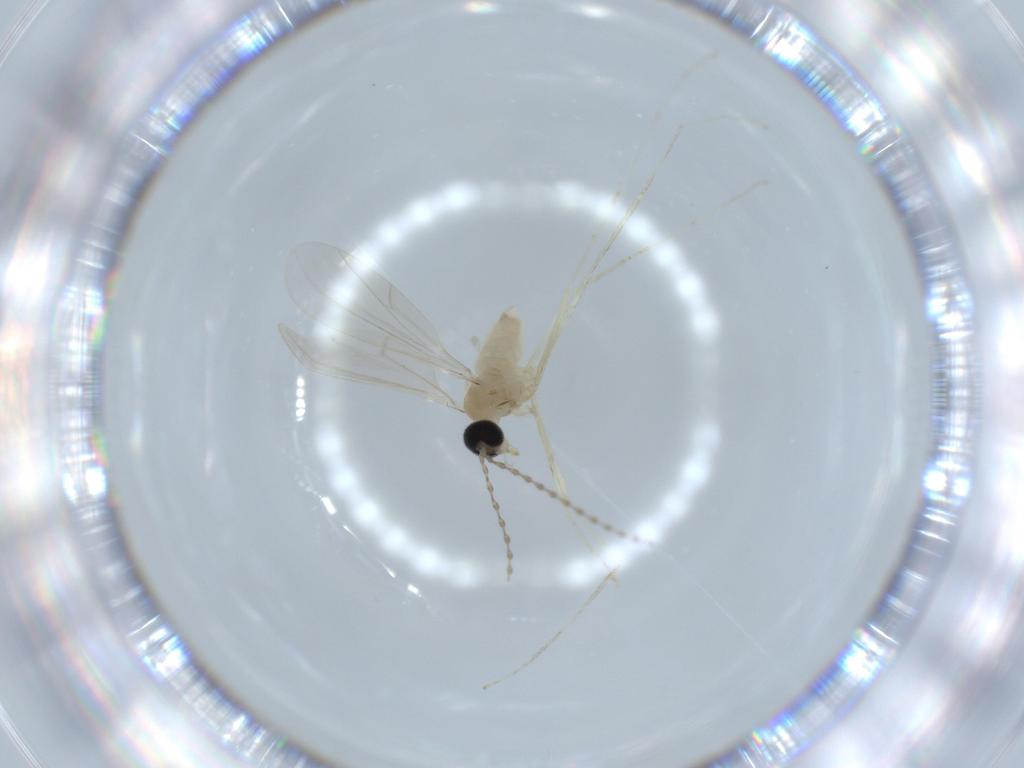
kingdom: Animalia
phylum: Arthropoda
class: Insecta
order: Diptera
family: Cecidomyiidae
